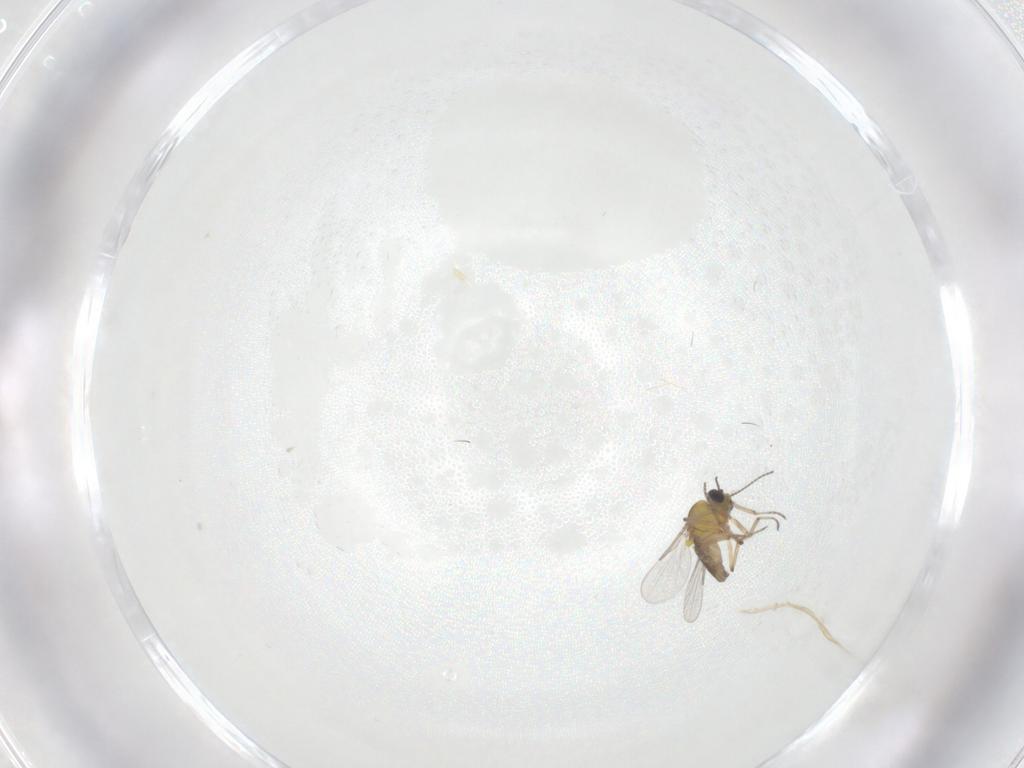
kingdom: Animalia
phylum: Arthropoda
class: Insecta
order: Diptera
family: Ceratopogonidae
